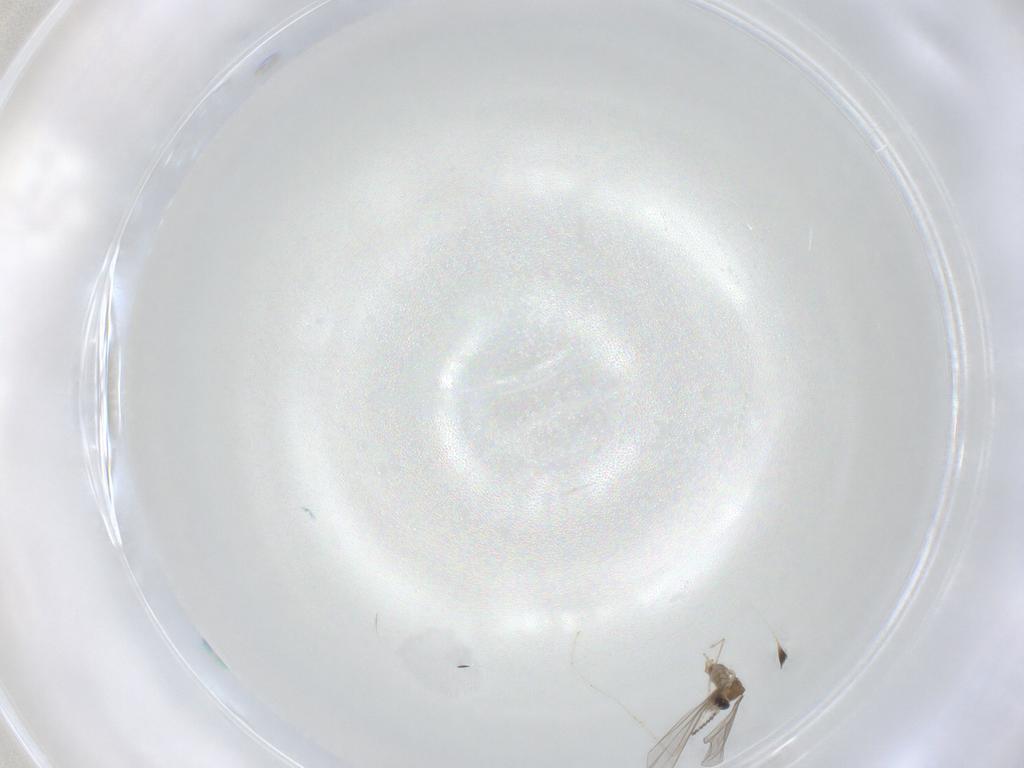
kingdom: Animalia
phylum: Arthropoda
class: Insecta
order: Diptera
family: Cecidomyiidae
